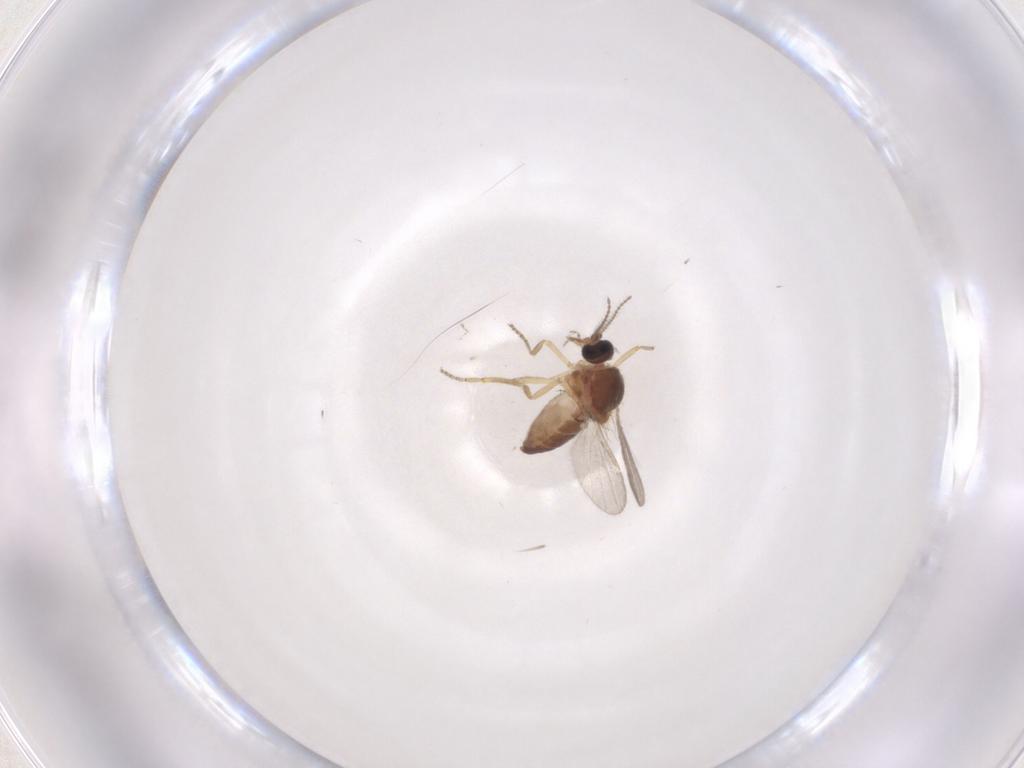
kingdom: Animalia
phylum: Arthropoda
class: Insecta
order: Diptera
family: Ceratopogonidae
